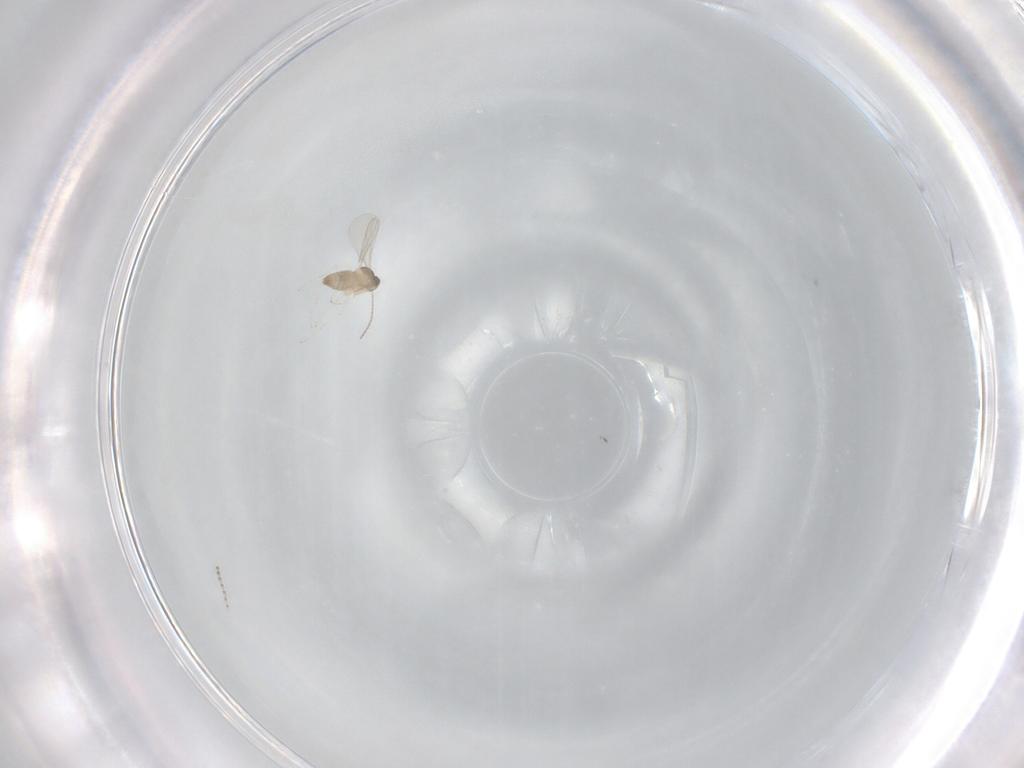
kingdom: Animalia
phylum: Arthropoda
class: Insecta
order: Diptera
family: Cecidomyiidae
